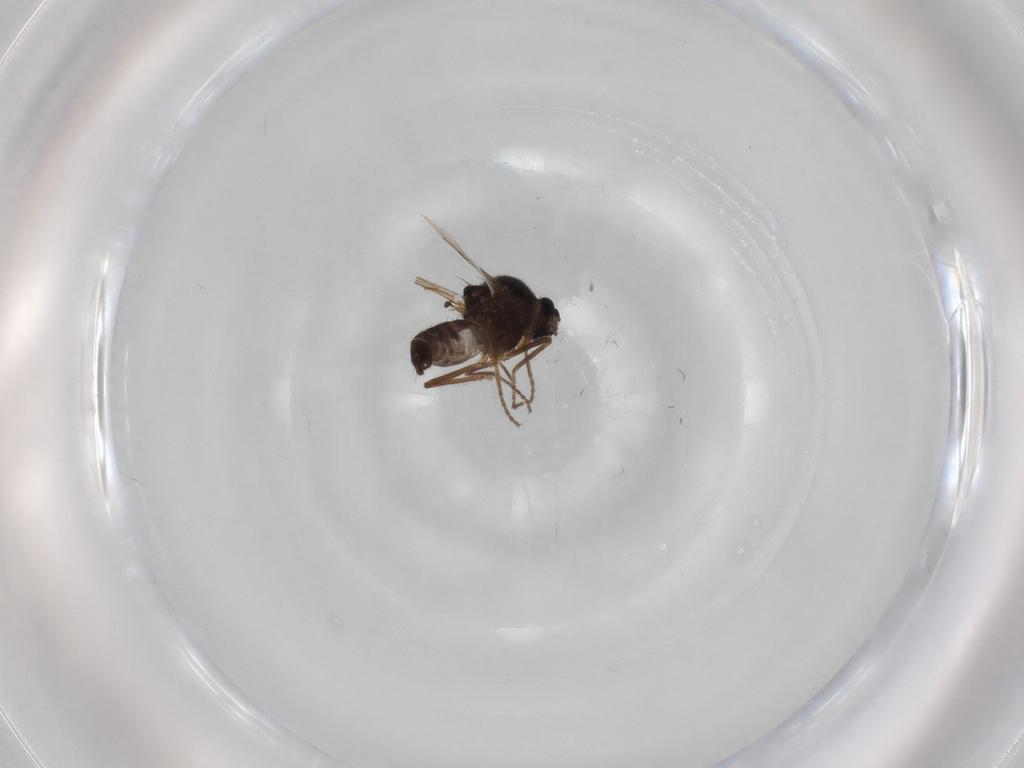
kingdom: Animalia
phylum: Arthropoda
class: Insecta
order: Diptera
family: Ceratopogonidae
